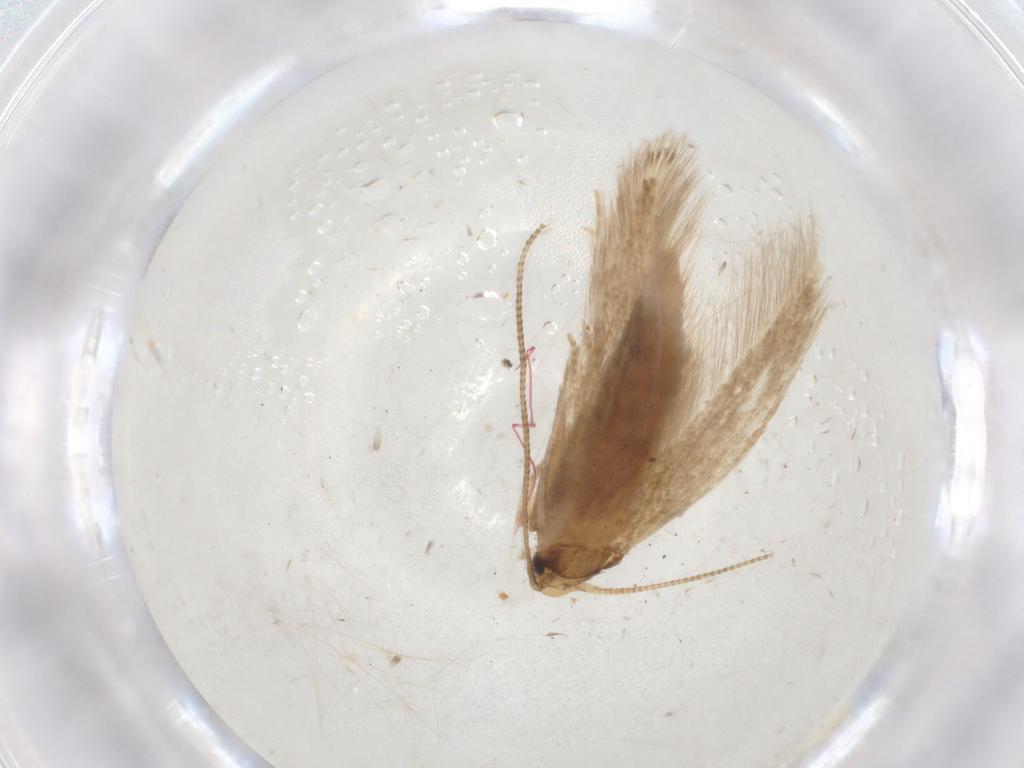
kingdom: Animalia
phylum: Arthropoda
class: Insecta
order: Lepidoptera
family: Tineidae
